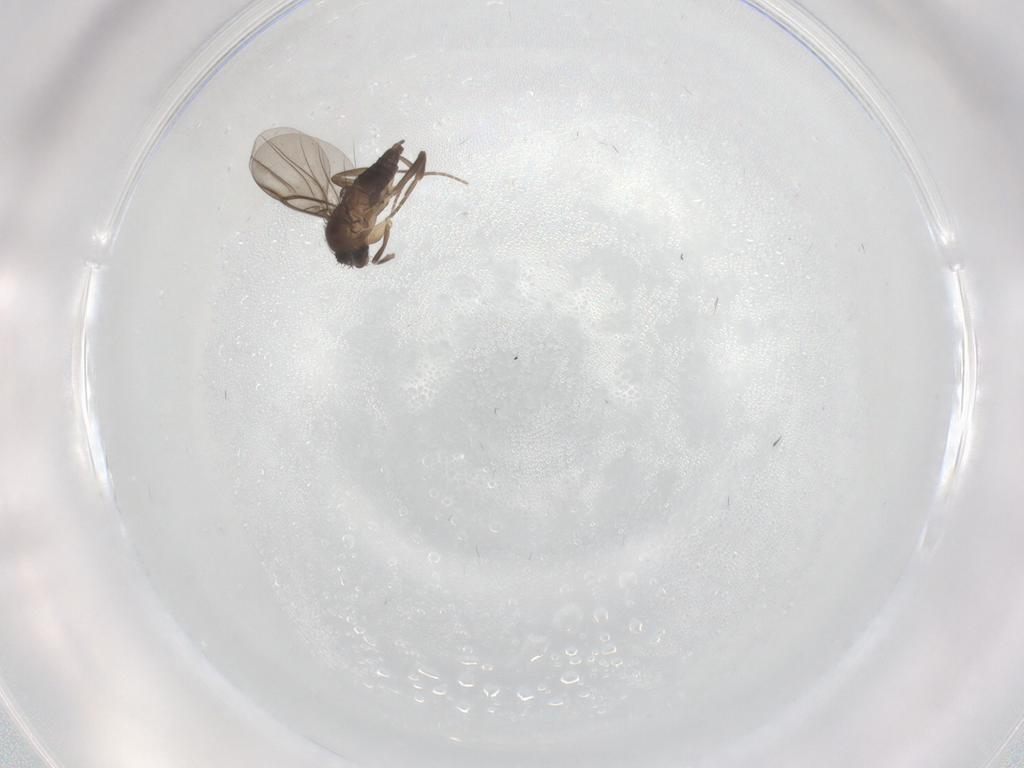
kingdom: Animalia
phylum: Arthropoda
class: Insecta
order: Diptera
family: Phoridae
